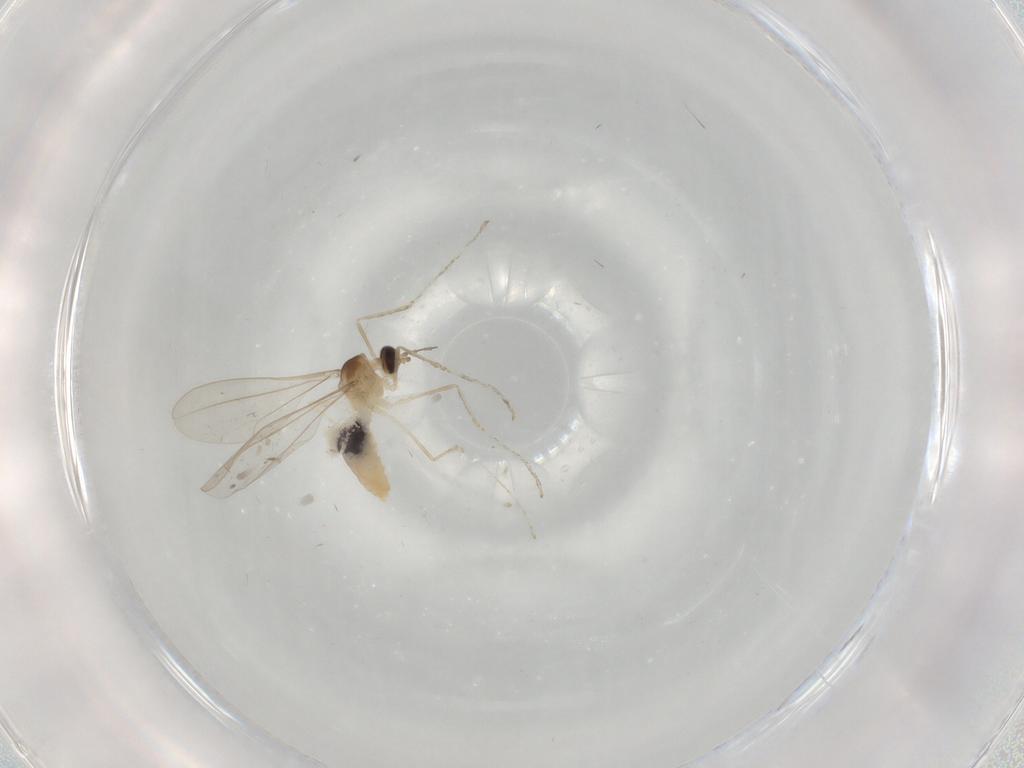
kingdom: Animalia
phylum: Arthropoda
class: Insecta
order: Diptera
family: Cecidomyiidae
